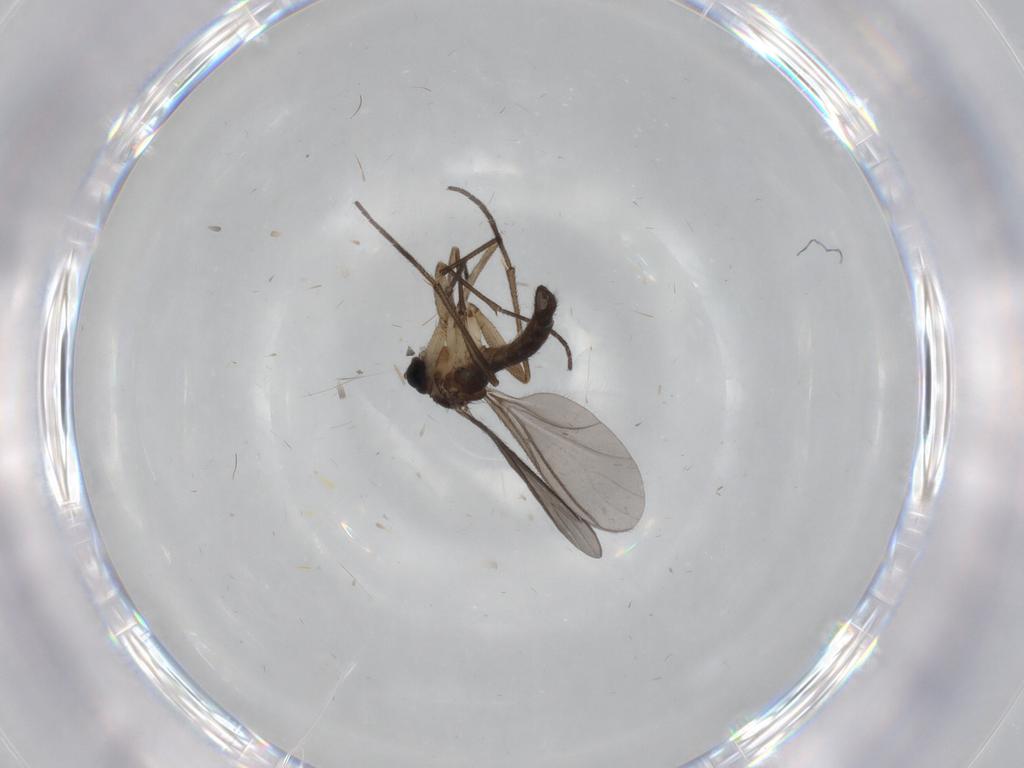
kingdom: Animalia
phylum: Arthropoda
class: Insecta
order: Diptera
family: Sciaridae
